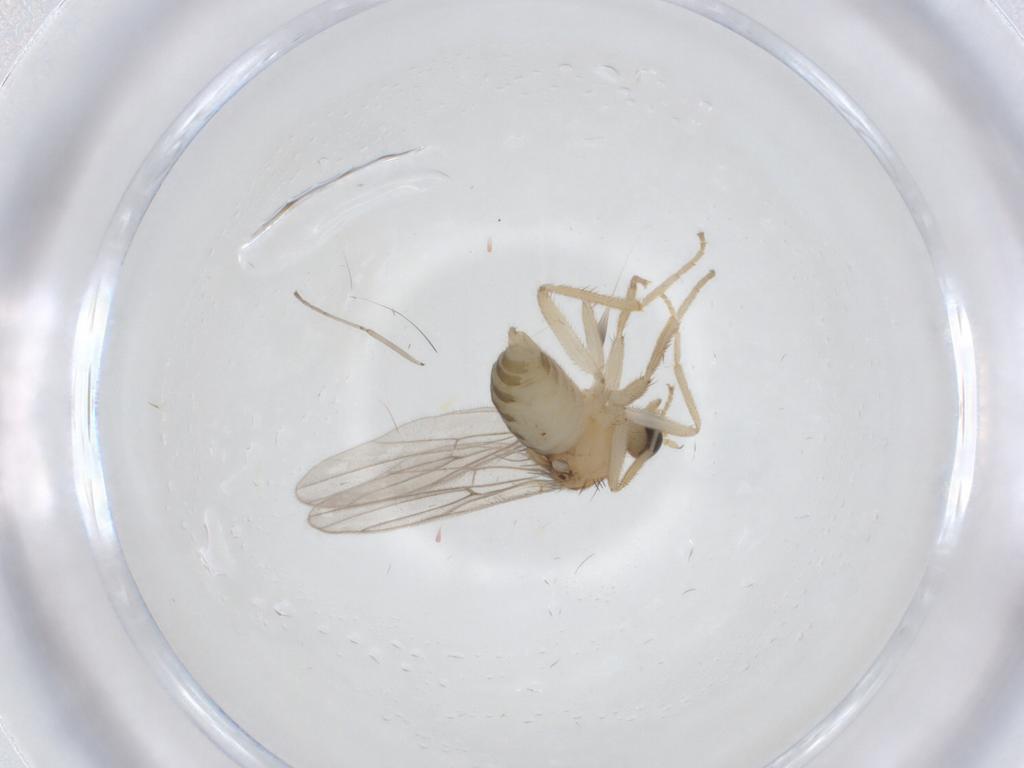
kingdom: Animalia
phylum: Arthropoda
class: Insecta
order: Diptera
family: Hybotidae
